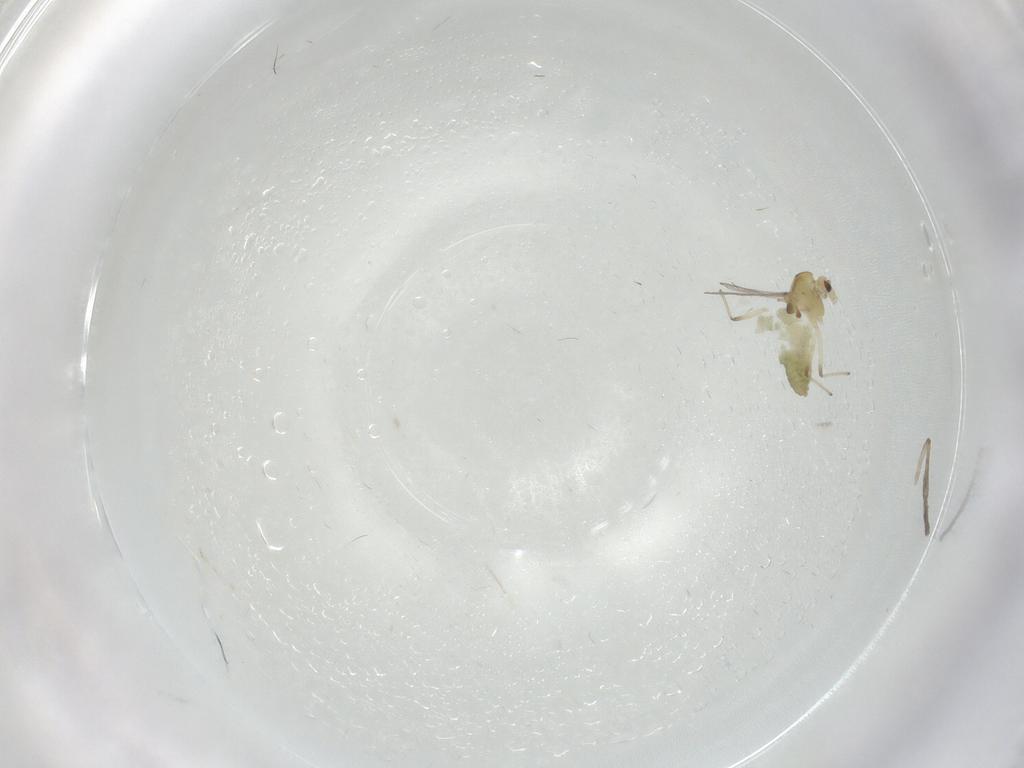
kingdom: Animalia
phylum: Arthropoda
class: Insecta
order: Diptera
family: Chironomidae
